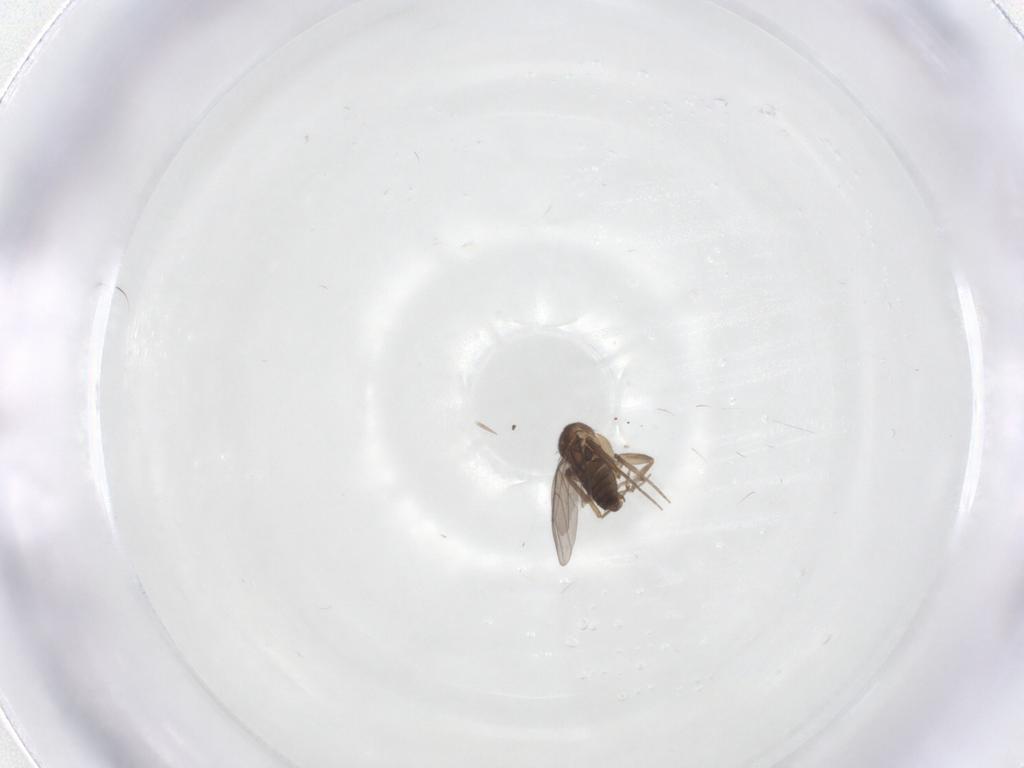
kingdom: Animalia
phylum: Arthropoda
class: Insecta
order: Diptera
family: Phoridae
